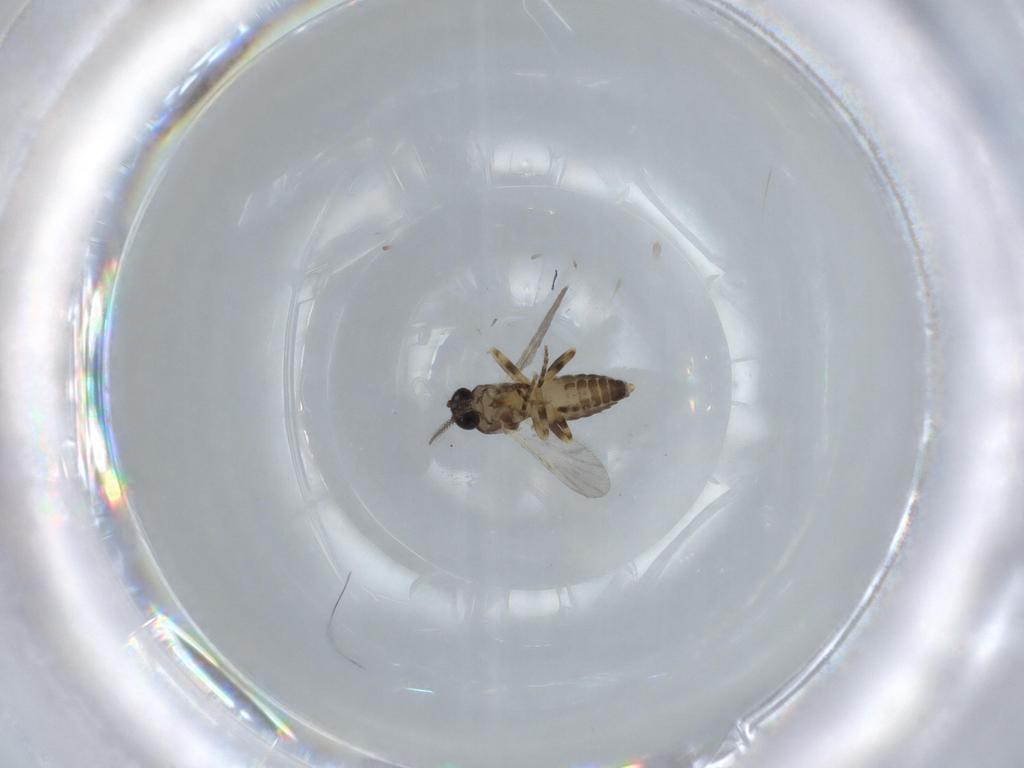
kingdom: Animalia
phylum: Arthropoda
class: Insecta
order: Diptera
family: Ceratopogonidae
